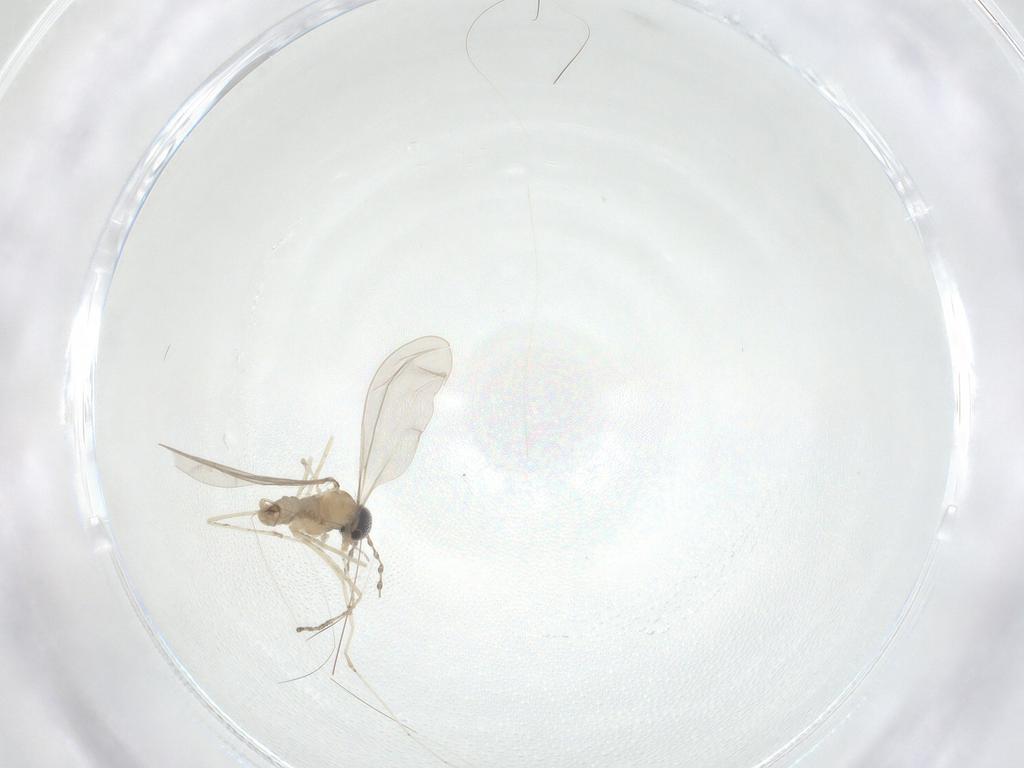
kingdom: Animalia
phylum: Arthropoda
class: Insecta
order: Diptera
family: Cecidomyiidae
